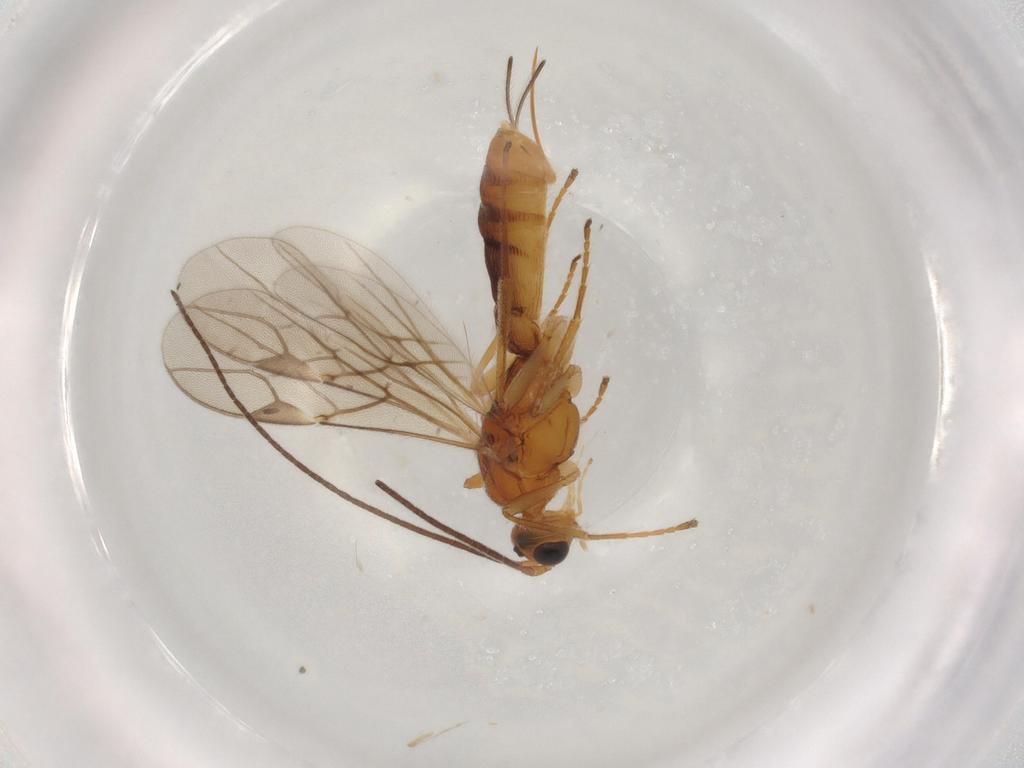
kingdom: Animalia
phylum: Arthropoda
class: Insecta
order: Hymenoptera
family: Braconidae
